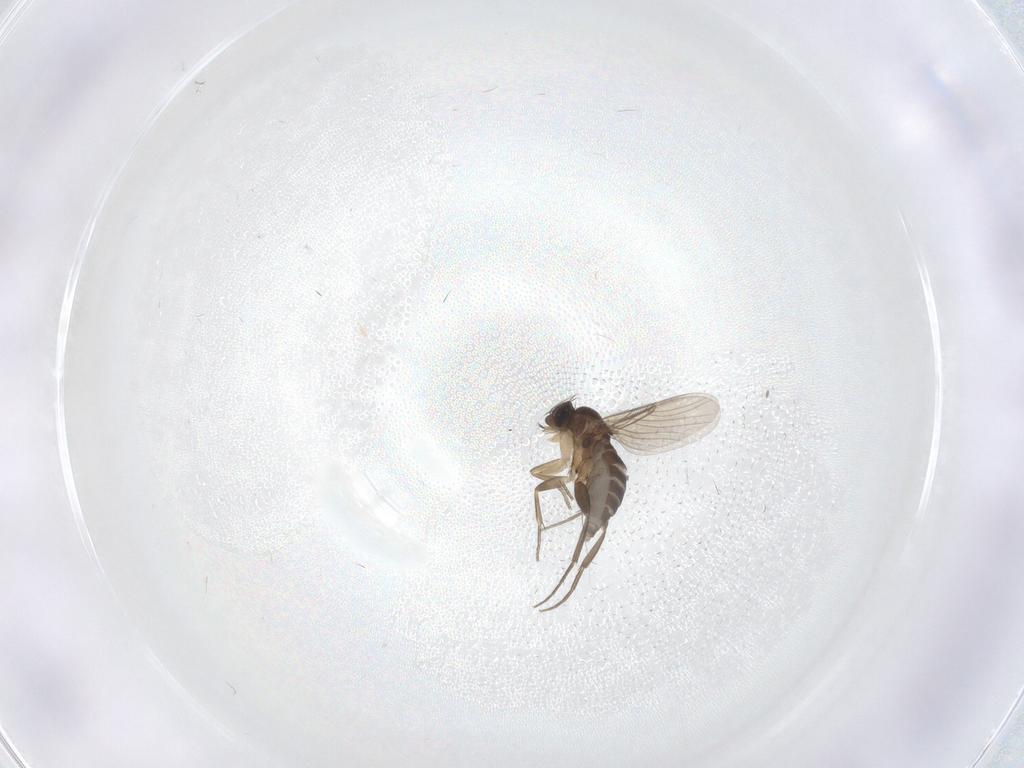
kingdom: Animalia
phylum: Arthropoda
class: Insecta
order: Diptera
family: Phoridae
